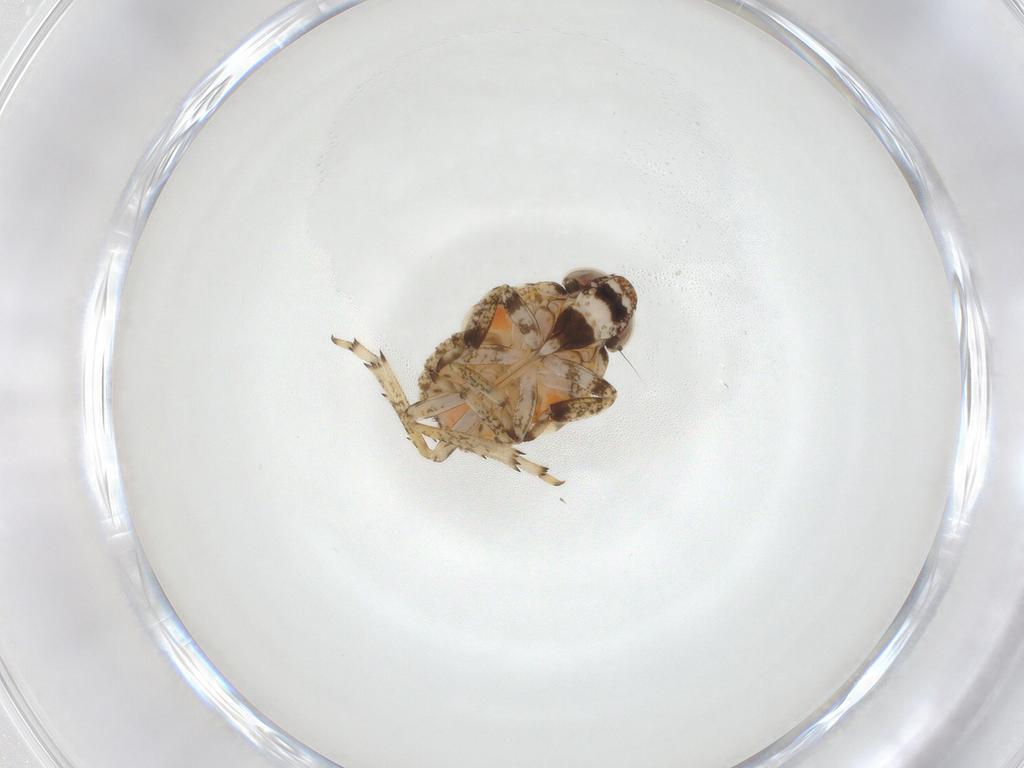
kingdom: Animalia
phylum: Arthropoda
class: Insecta
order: Hemiptera
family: Issidae
